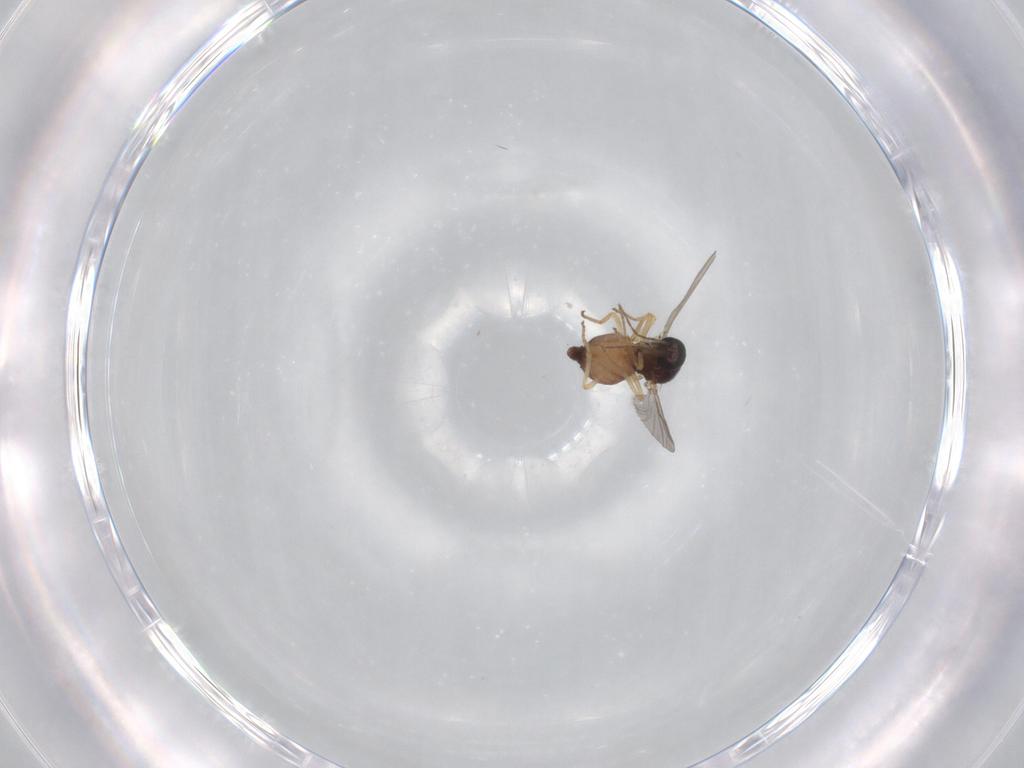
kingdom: Animalia
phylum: Arthropoda
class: Insecta
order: Diptera
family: Ceratopogonidae
